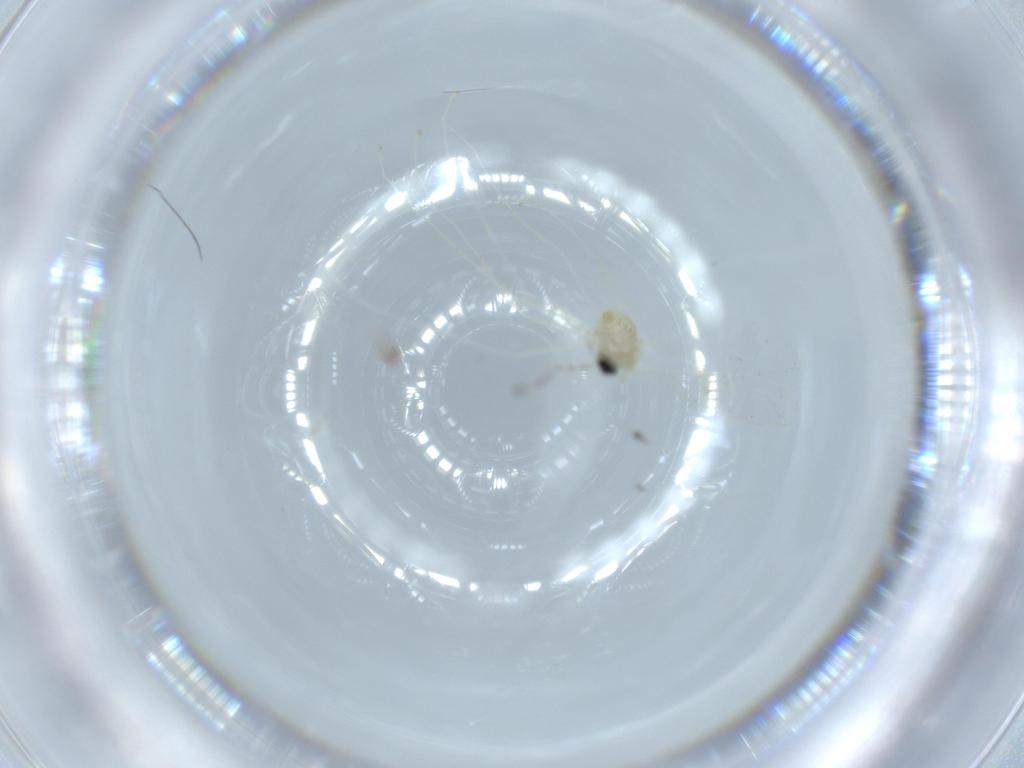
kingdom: Animalia
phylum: Arthropoda
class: Insecta
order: Diptera
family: Cecidomyiidae
